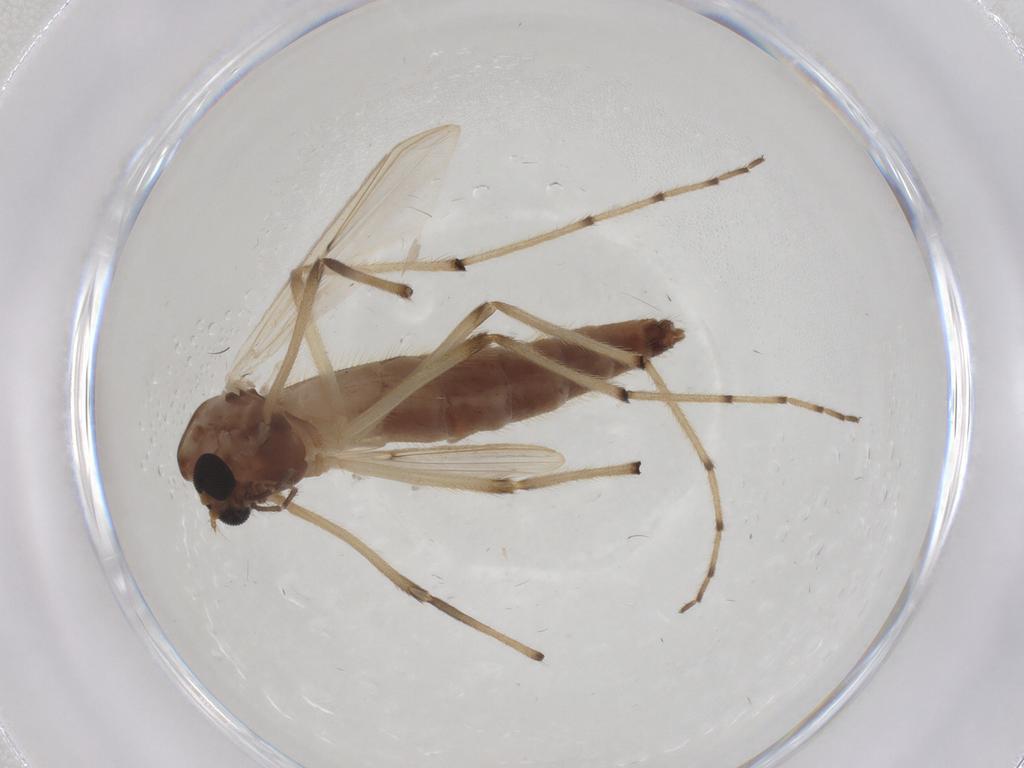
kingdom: Animalia
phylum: Arthropoda
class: Insecta
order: Diptera
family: Chironomidae
